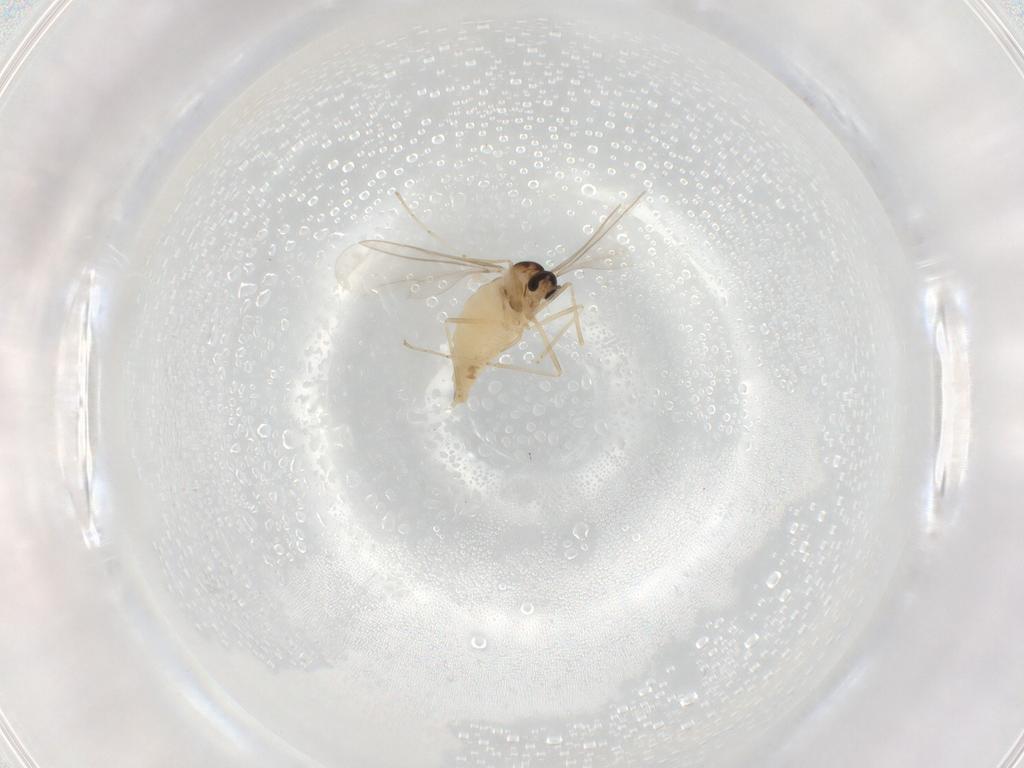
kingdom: Animalia
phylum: Arthropoda
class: Insecta
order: Diptera
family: Cecidomyiidae
